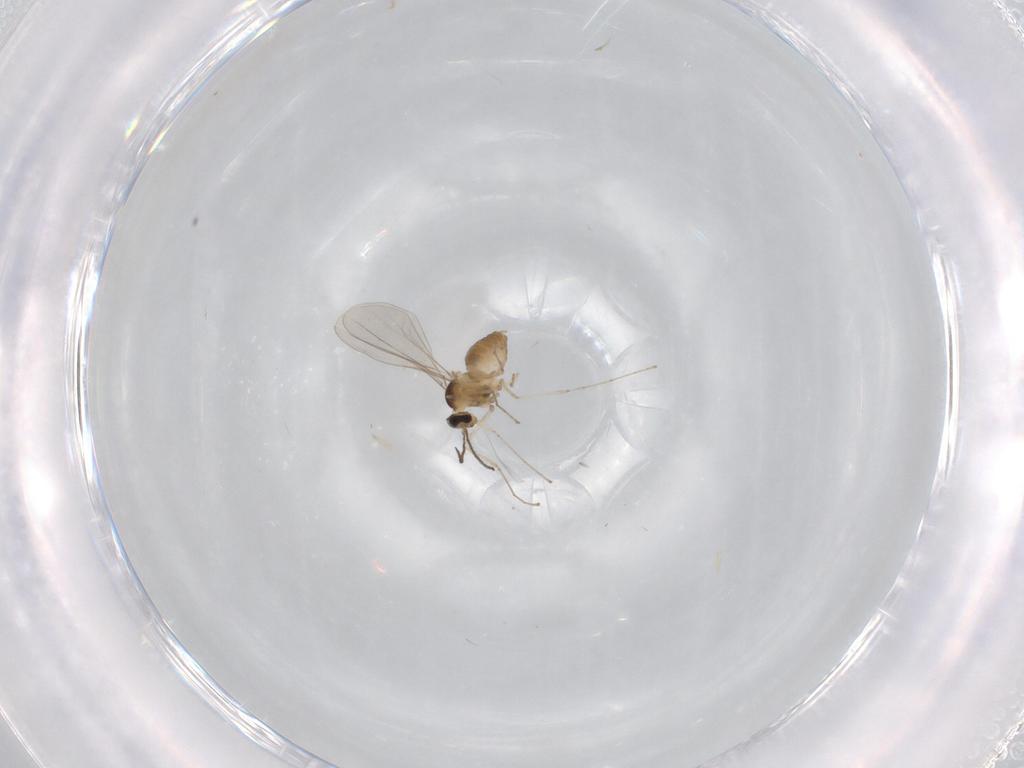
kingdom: Animalia
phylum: Arthropoda
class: Insecta
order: Diptera
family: Cecidomyiidae
